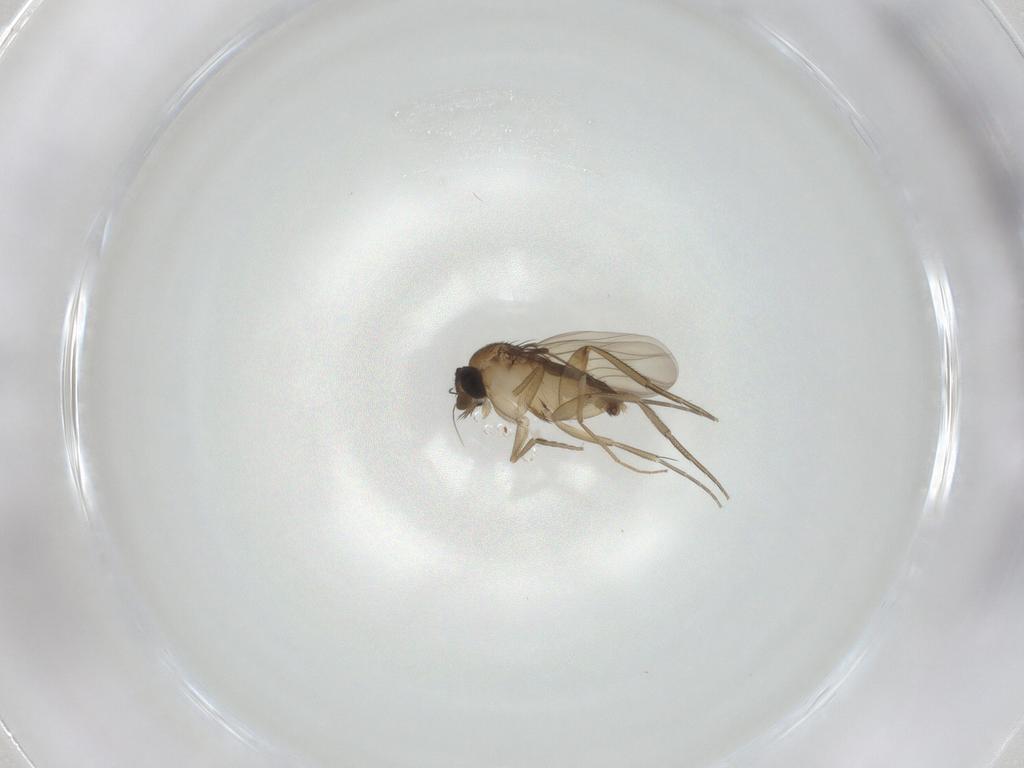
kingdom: Animalia
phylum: Arthropoda
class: Insecta
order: Diptera
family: Phoridae
